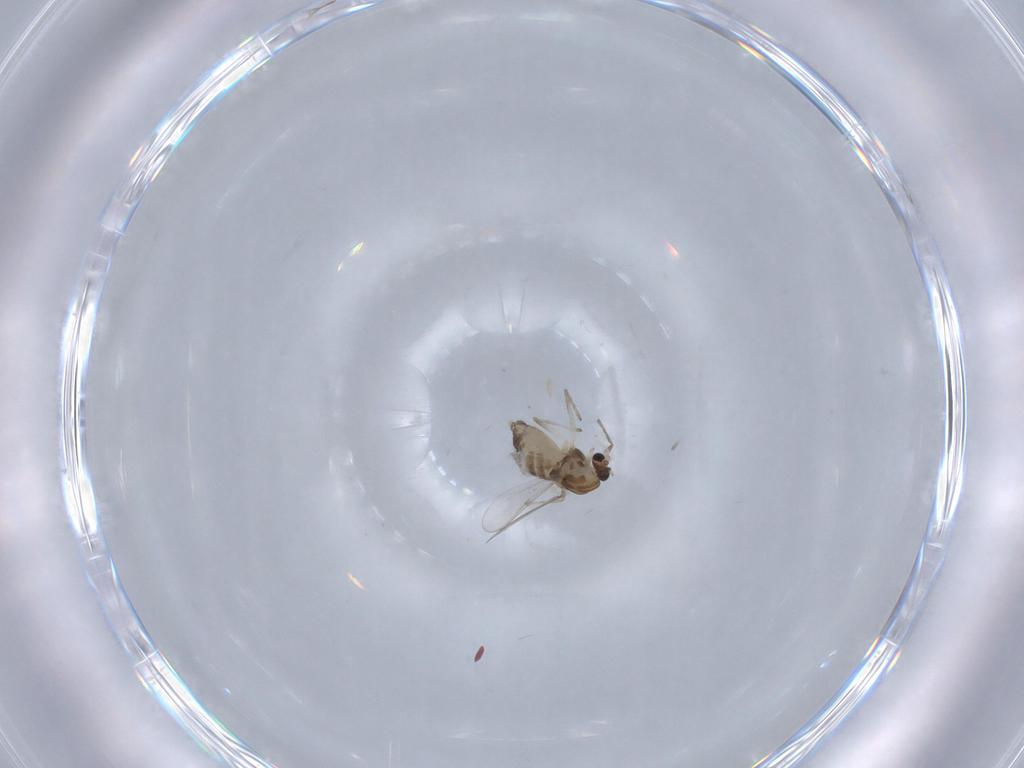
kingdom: Animalia
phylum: Arthropoda
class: Insecta
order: Diptera
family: Chironomidae
